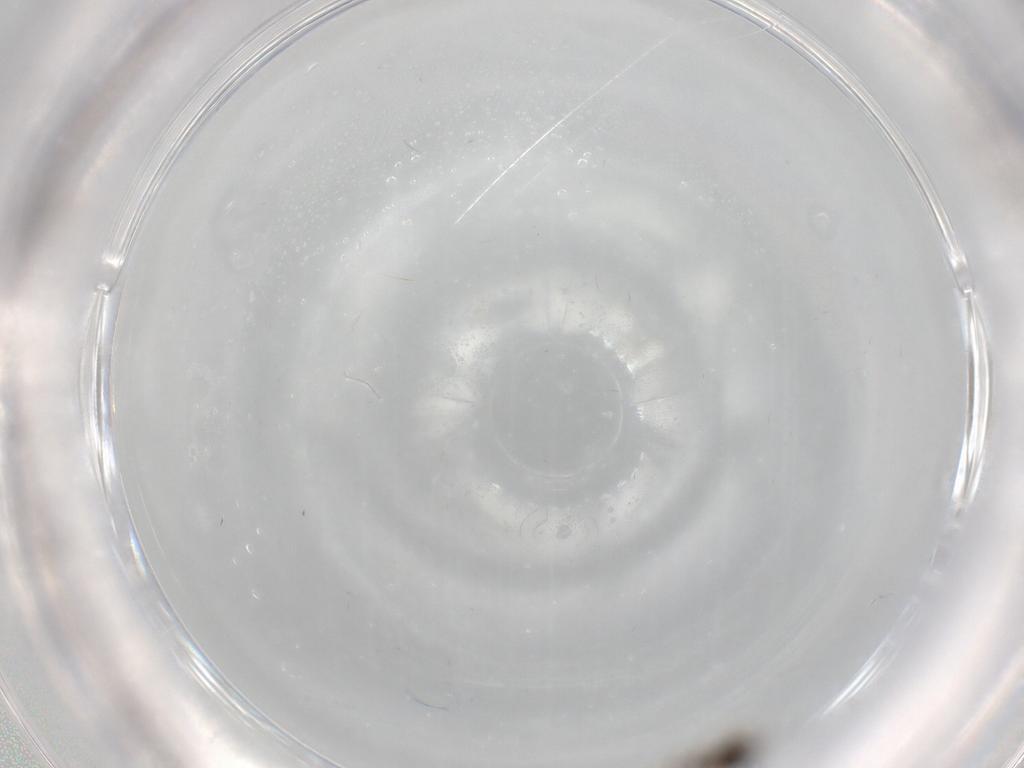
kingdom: Animalia
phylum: Arthropoda
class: Insecta
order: Diptera
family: Psychodidae
